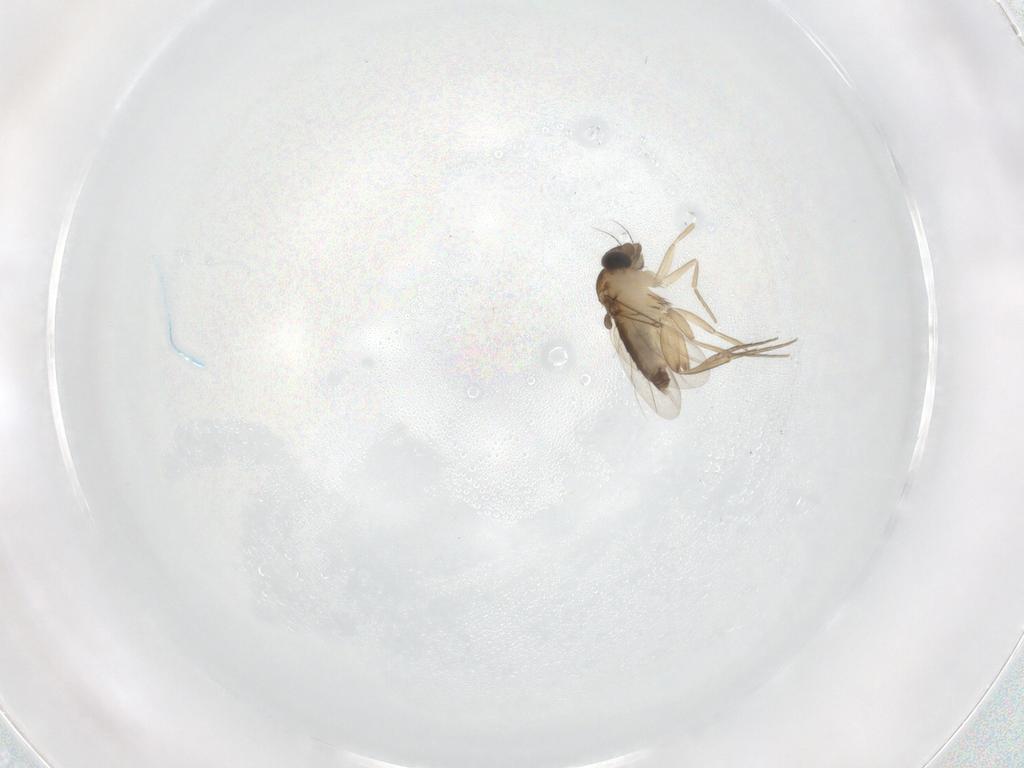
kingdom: Animalia
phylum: Arthropoda
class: Insecta
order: Diptera
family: Phoridae
